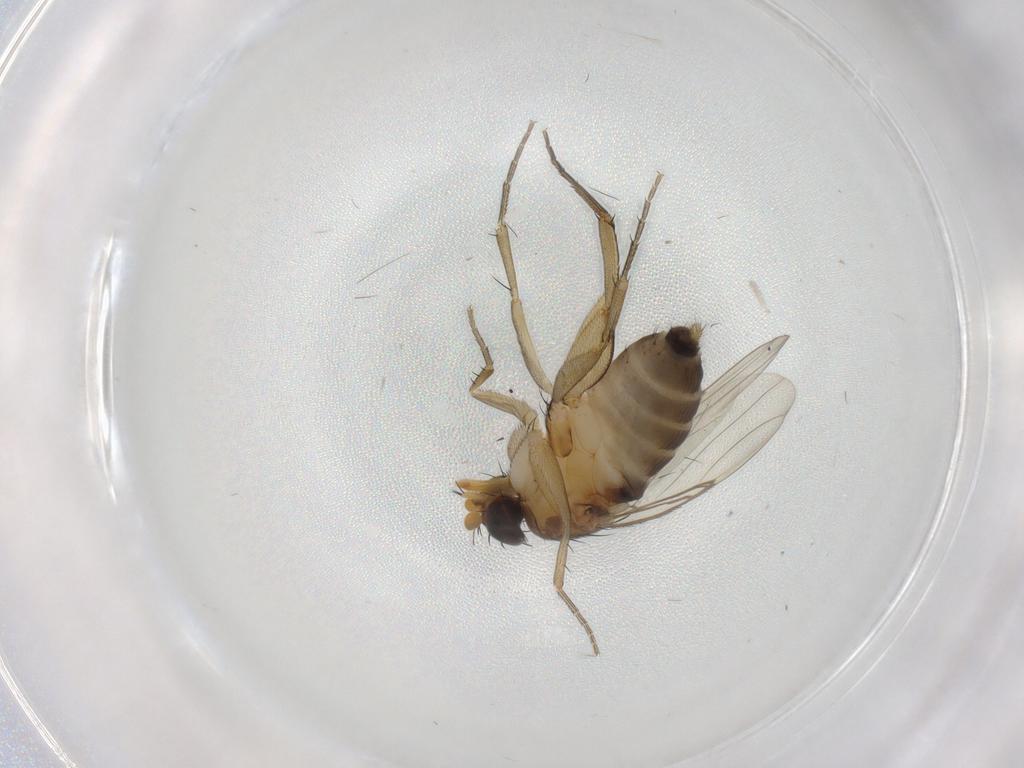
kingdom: Animalia
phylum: Arthropoda
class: Insecta
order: Diptera
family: Phoridae
